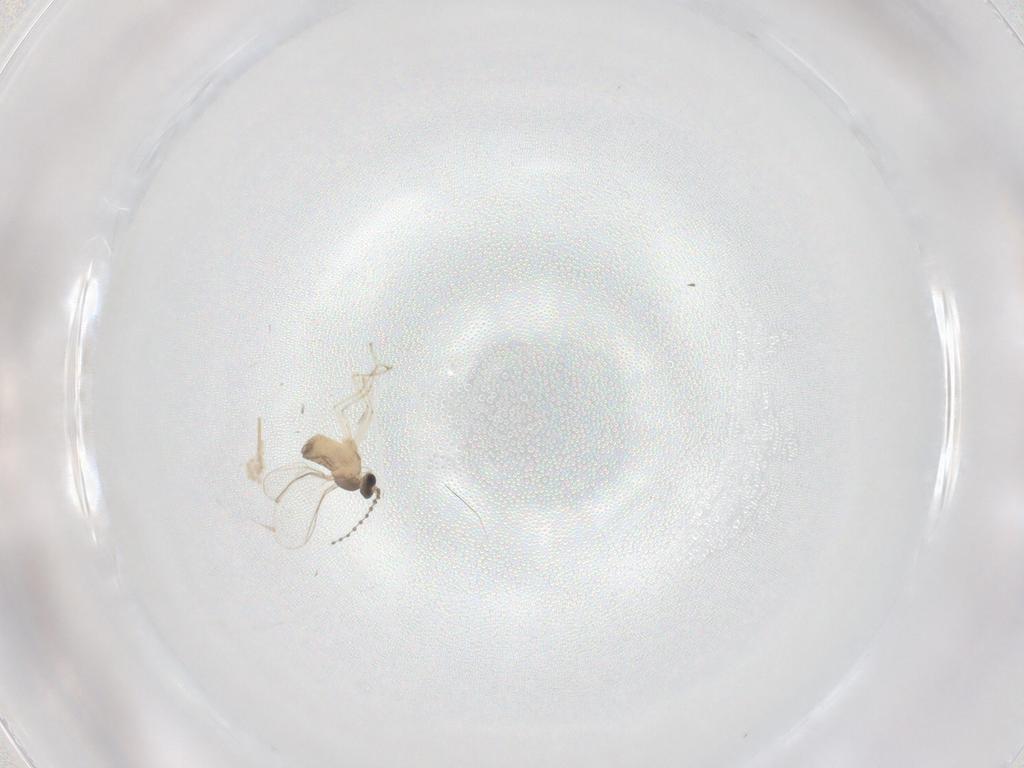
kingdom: Animalia
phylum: Arthropoda
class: Insecta
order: Diptera
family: Cecidomyiidae
